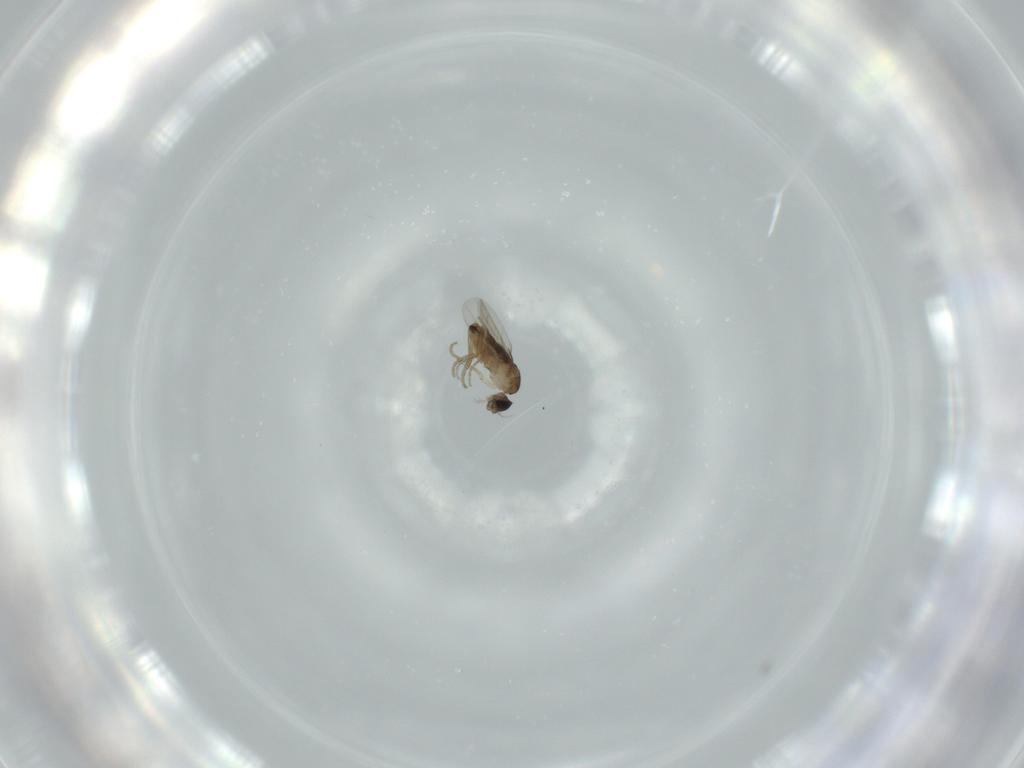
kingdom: Animalia
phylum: Arthropoda
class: Insecta
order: Diptera
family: Phoridae
